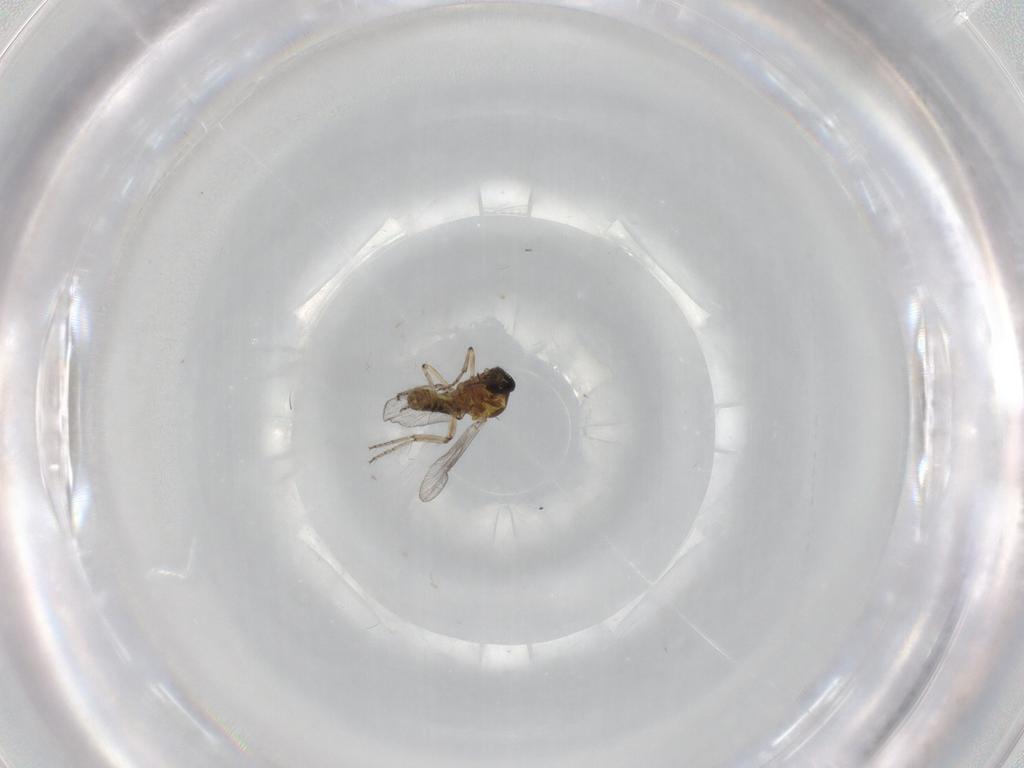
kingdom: Animalia
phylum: Arthropoda
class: Insecta
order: Diptera
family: Ceratopogonidae
